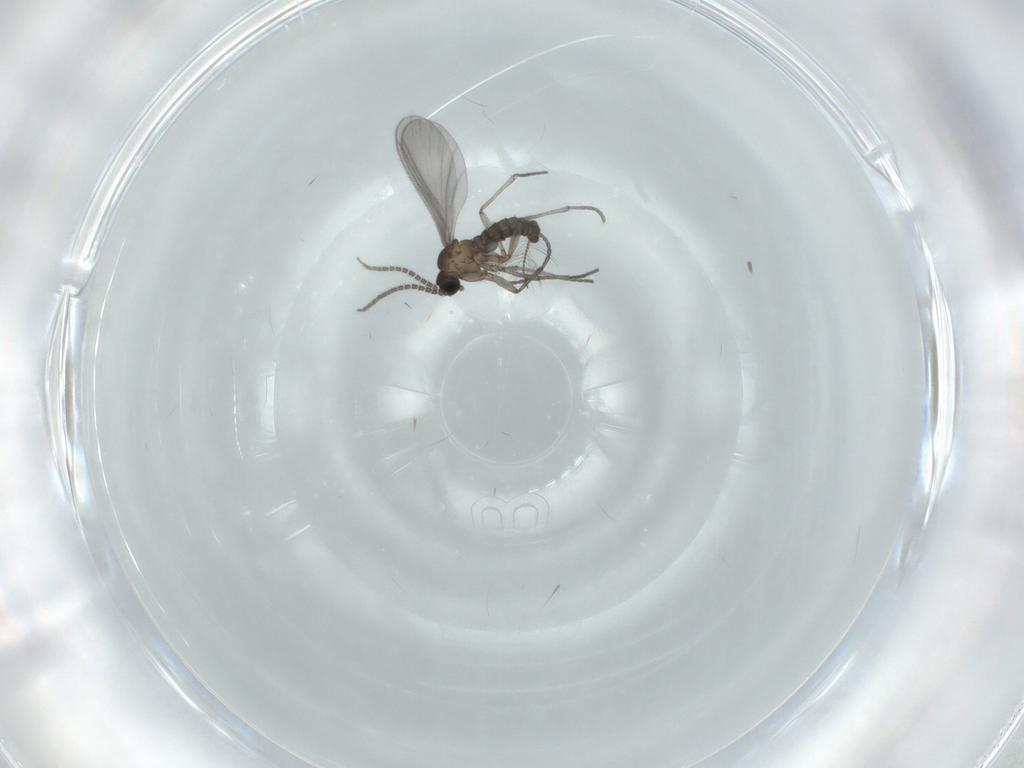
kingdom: Animalia
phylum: Arthropoda
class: Insecta
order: Diptera
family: Sciaridae
